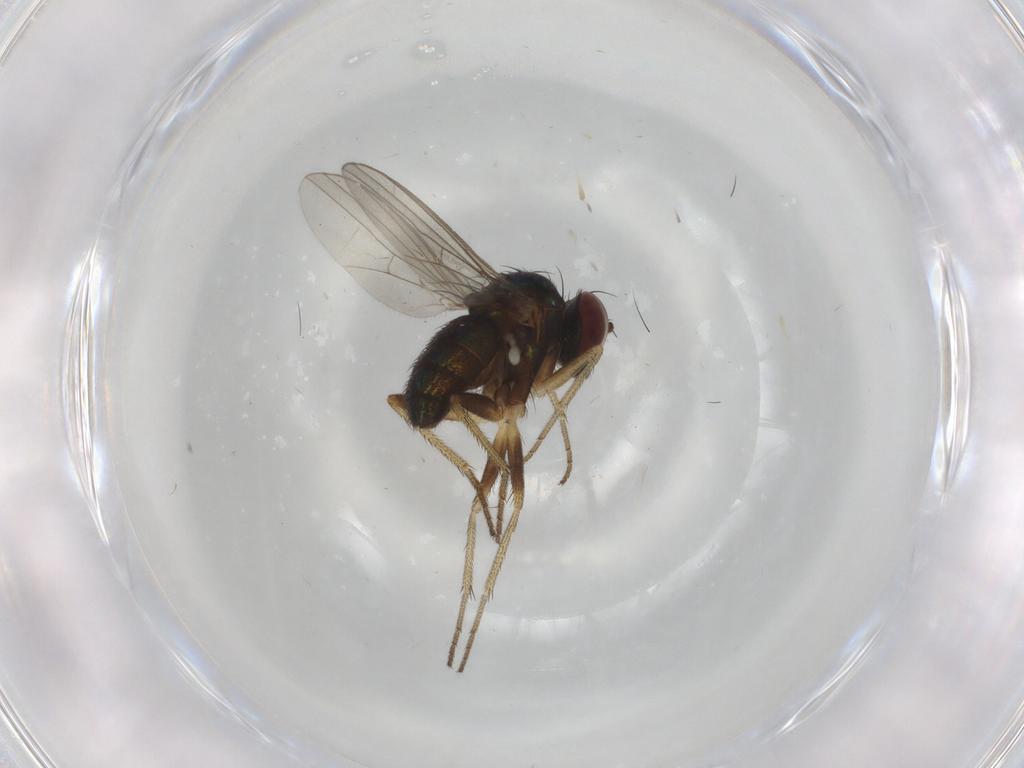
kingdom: Animalia
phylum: Arthropoda
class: Insecta
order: Diptera
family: Dolichopodidae
